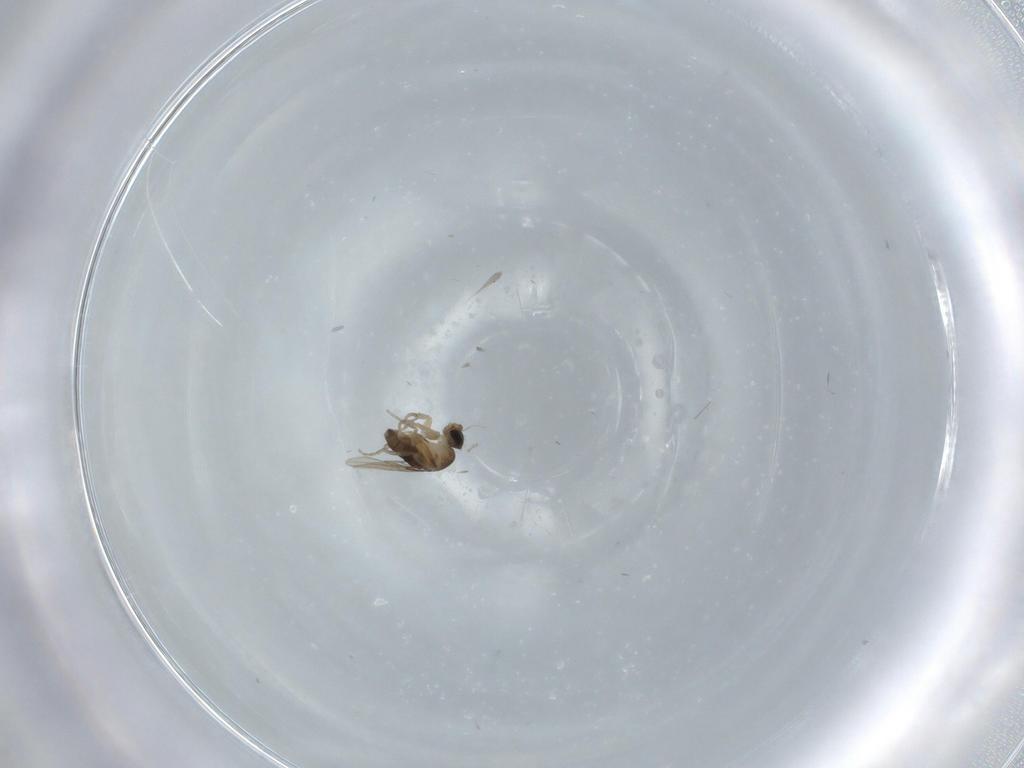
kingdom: Animalia
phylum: Arthropoda
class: Insecta
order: Diptera
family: Phoridae
